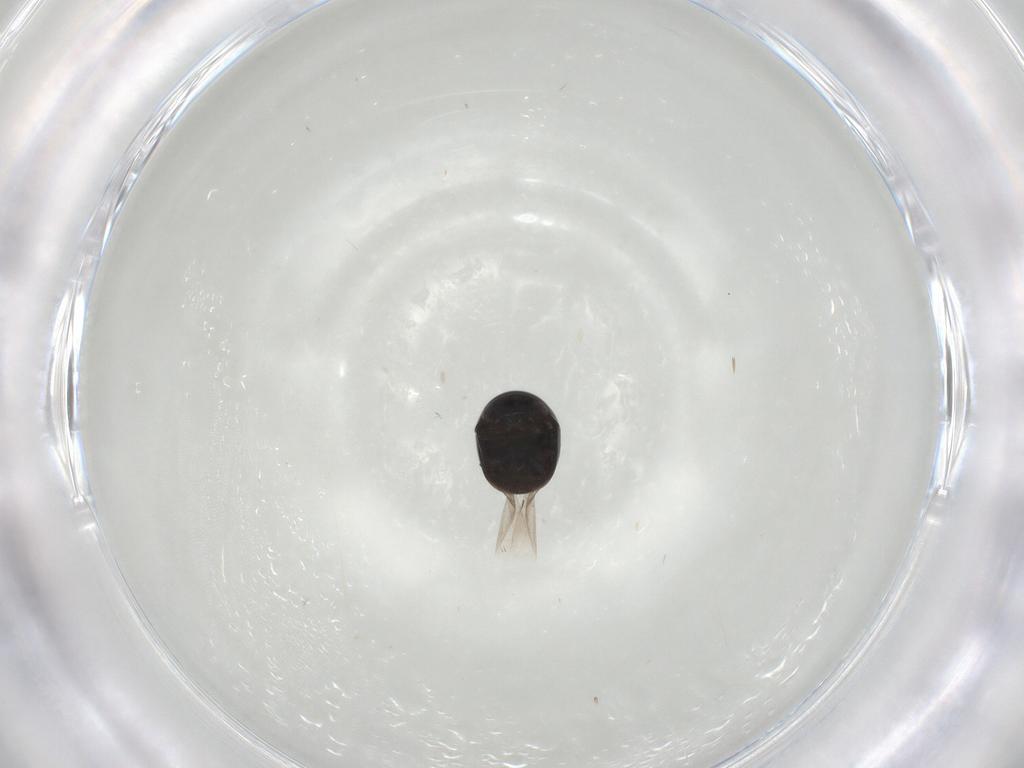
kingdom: Animalia
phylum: Arthropoda
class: Insecta
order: Coleoptera
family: Cybocephalidae
